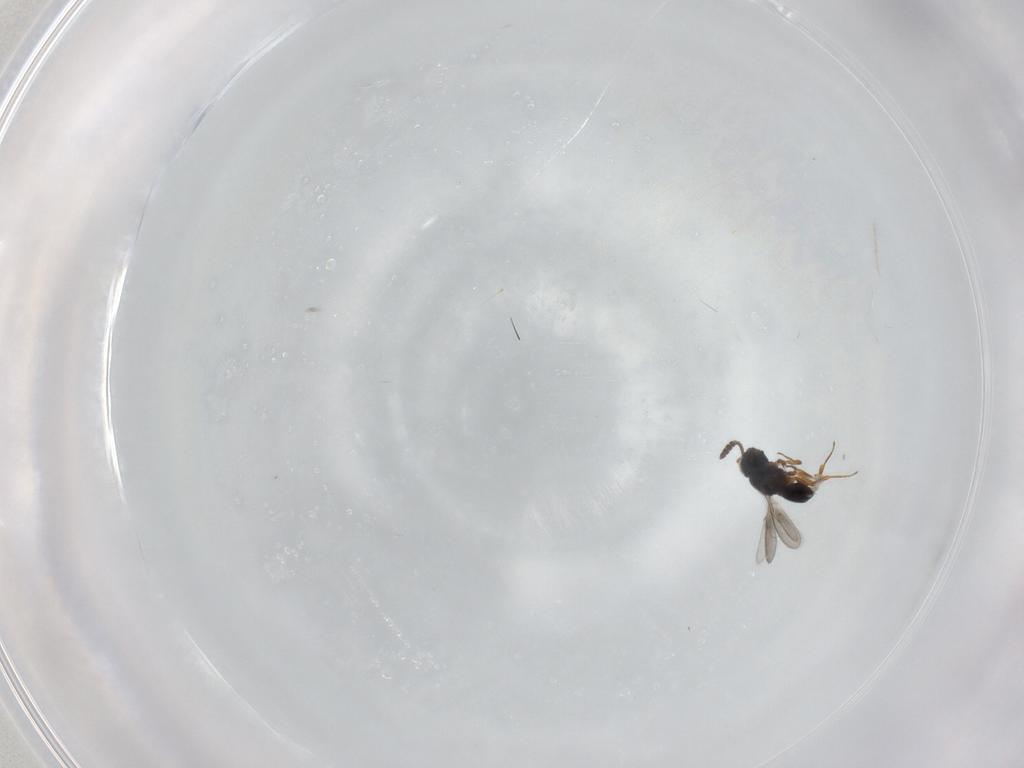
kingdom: Animalia
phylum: Arthropoda
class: Insecta
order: Hymenoptera
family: Scelionidae
